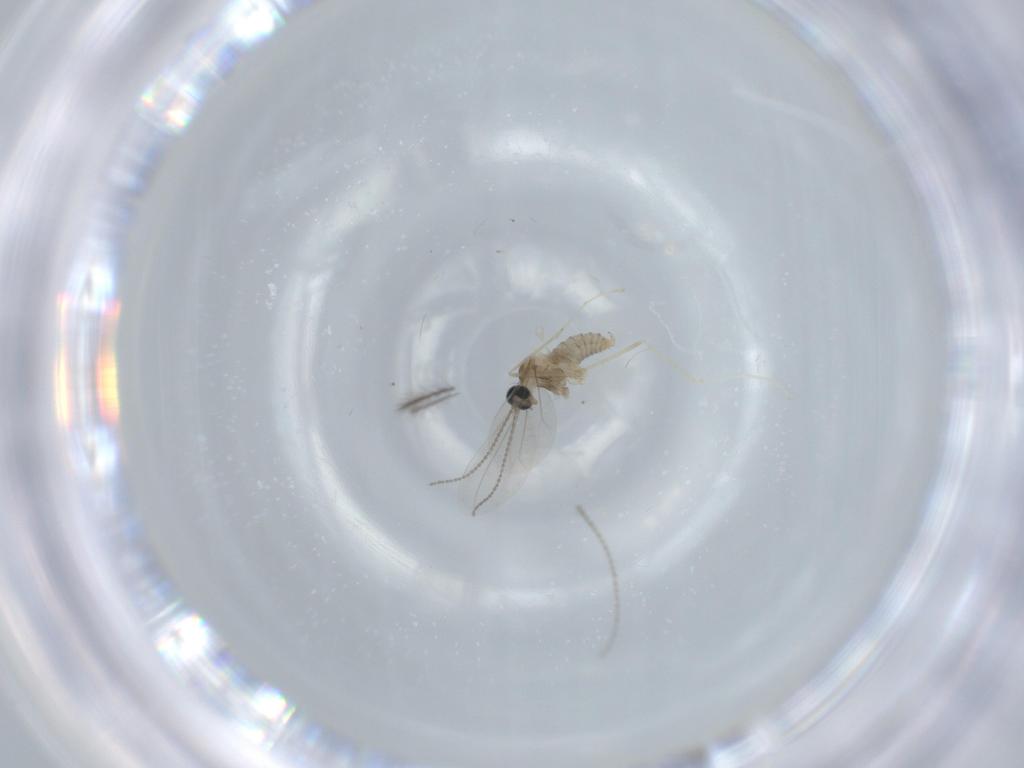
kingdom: Animalia
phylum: Arthropoda
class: Insecta
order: Diptera
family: Cecidomyiidae
